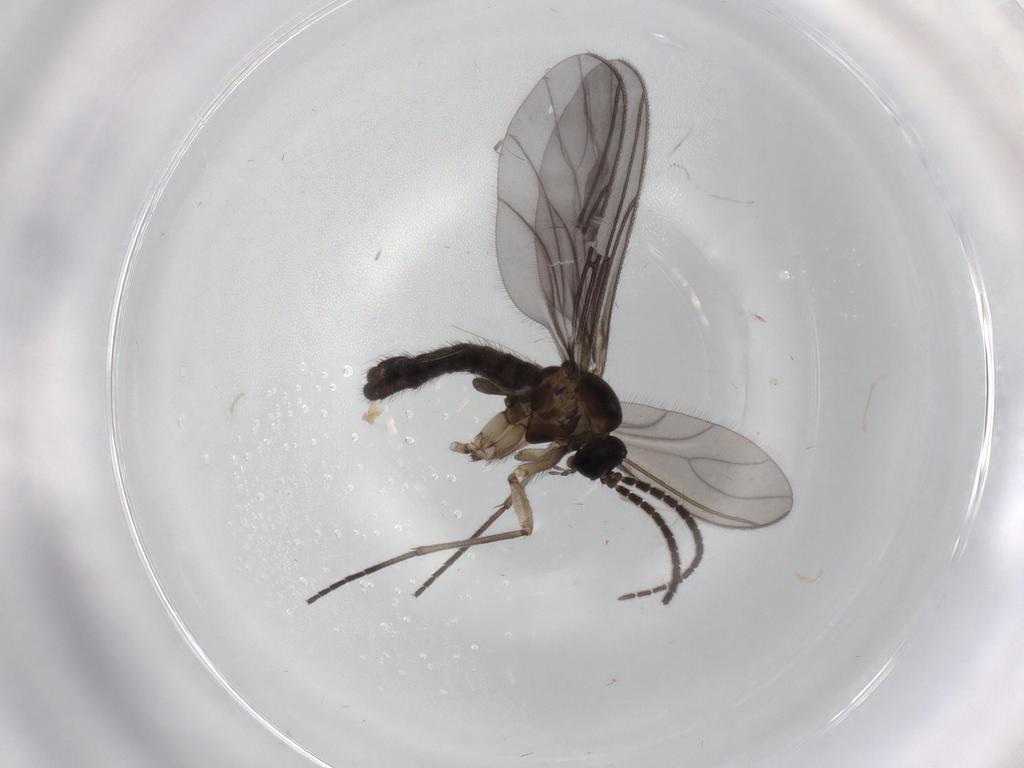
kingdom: Animalia
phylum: Arthropoda
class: Insecta
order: Diptera
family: Sciaridae
